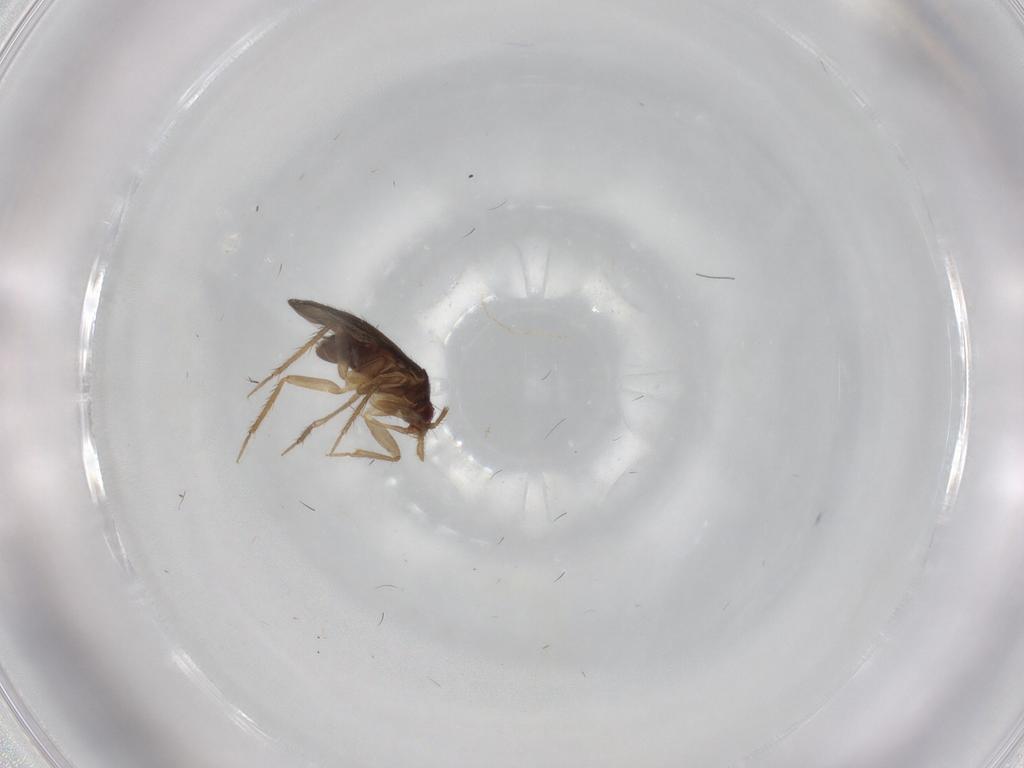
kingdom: Animalia
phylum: Arthropoda
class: Insecta
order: Hemiptera
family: Ceratocombidae
